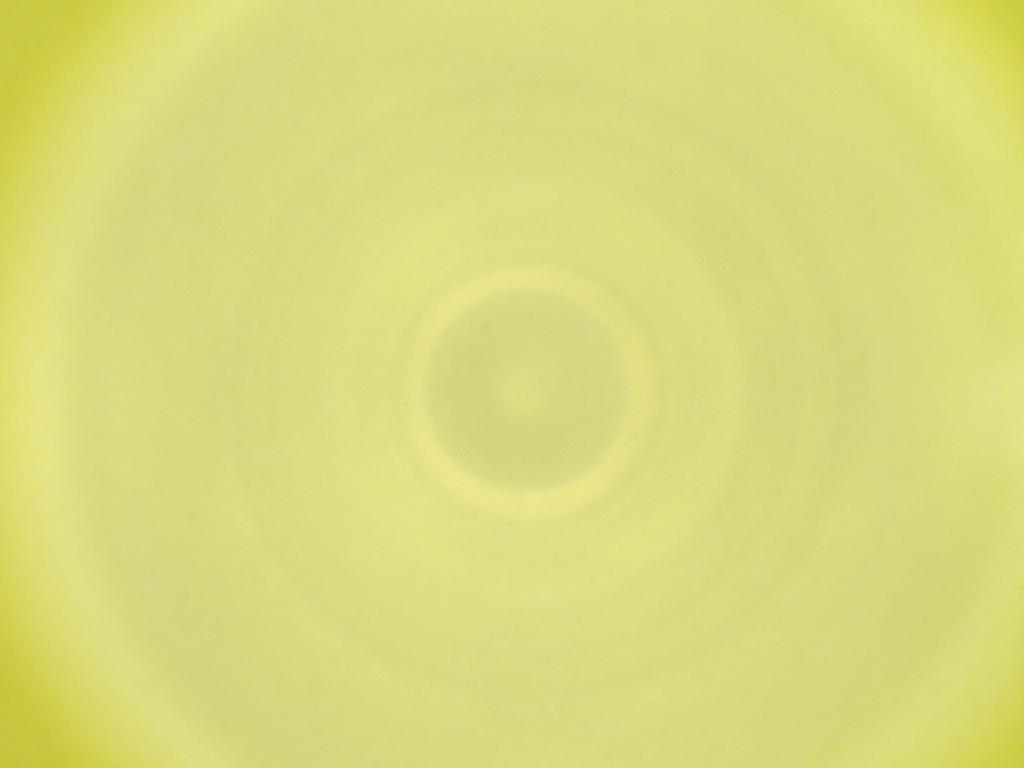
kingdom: Animalia
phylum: Arthropoda
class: Insecta
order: Diptera
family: Cecidomyiidae
